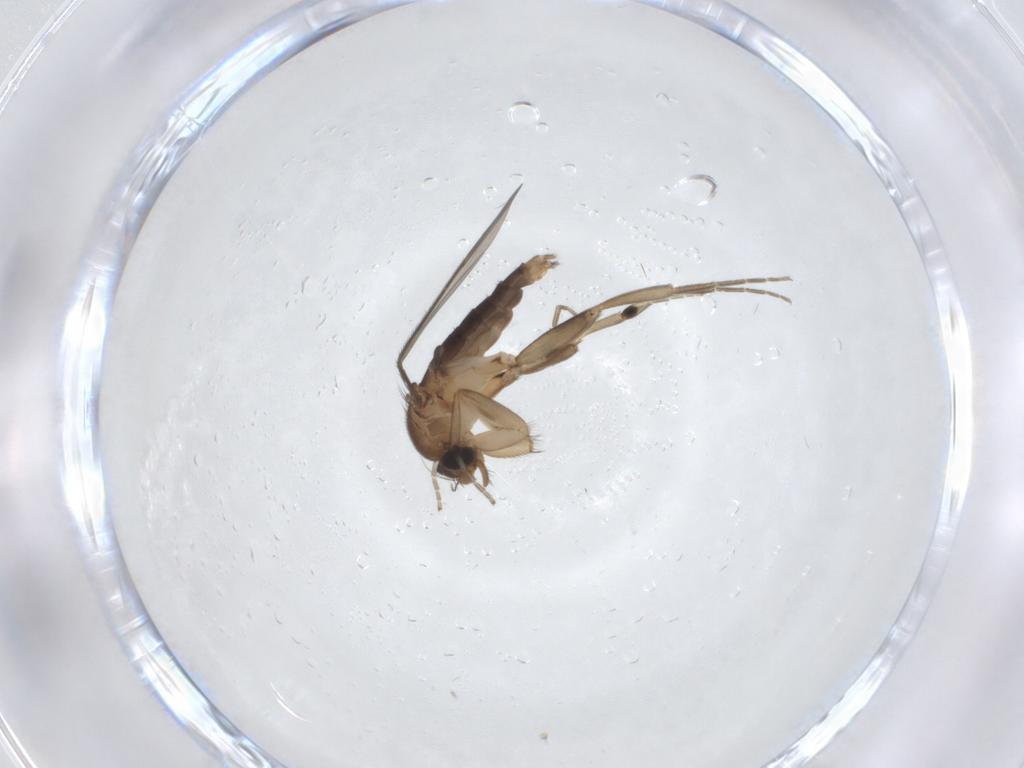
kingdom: Animalia
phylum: Arthropoda
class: Insecta
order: Diptera
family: Phoridae
